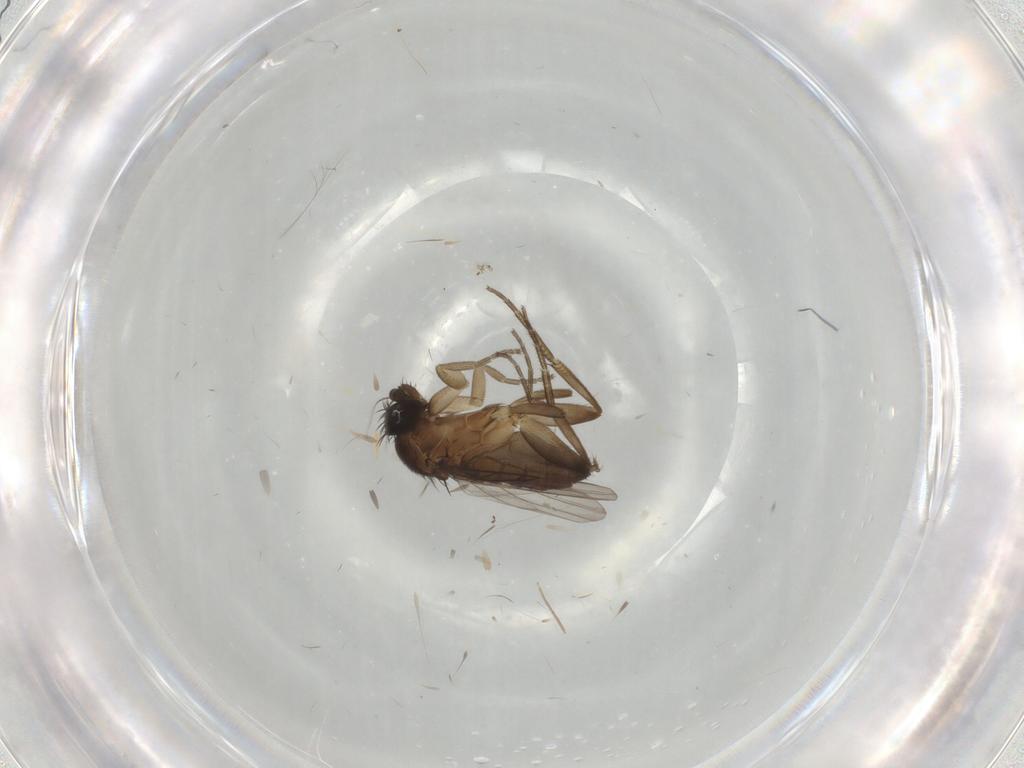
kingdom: Animalia
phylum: Arthropoda
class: Insecta
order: Diptera
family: Phoridae
